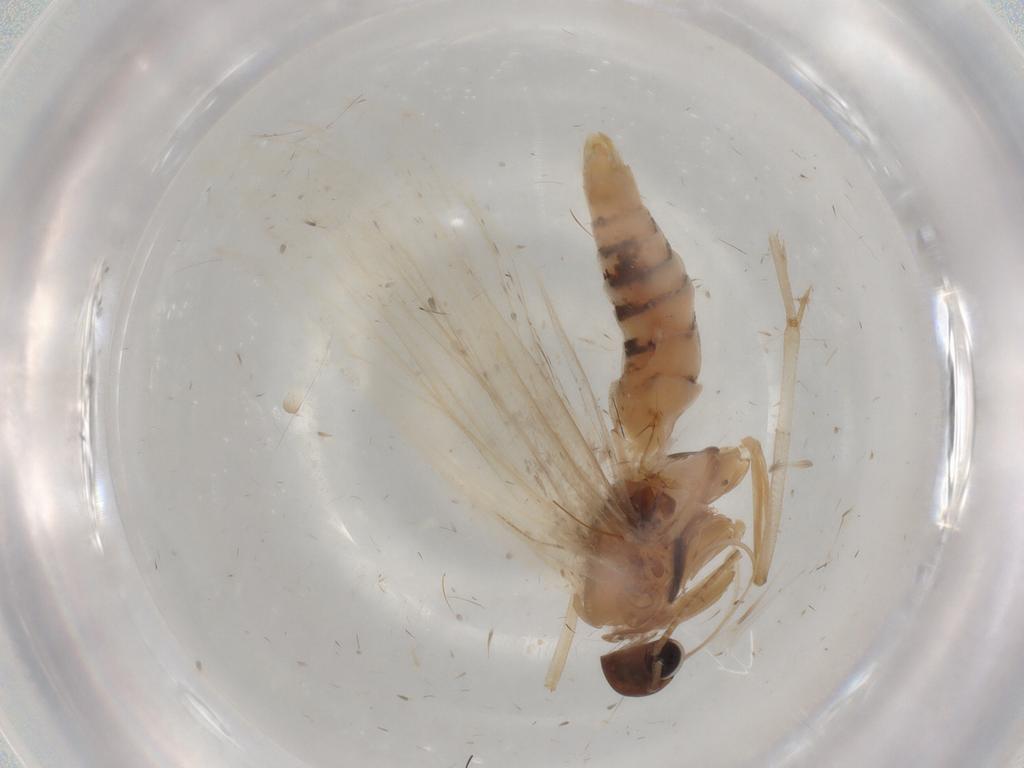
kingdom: Animalia
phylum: Arthropoda
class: Insecta
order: Lepidoptera
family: Gelechiidae
